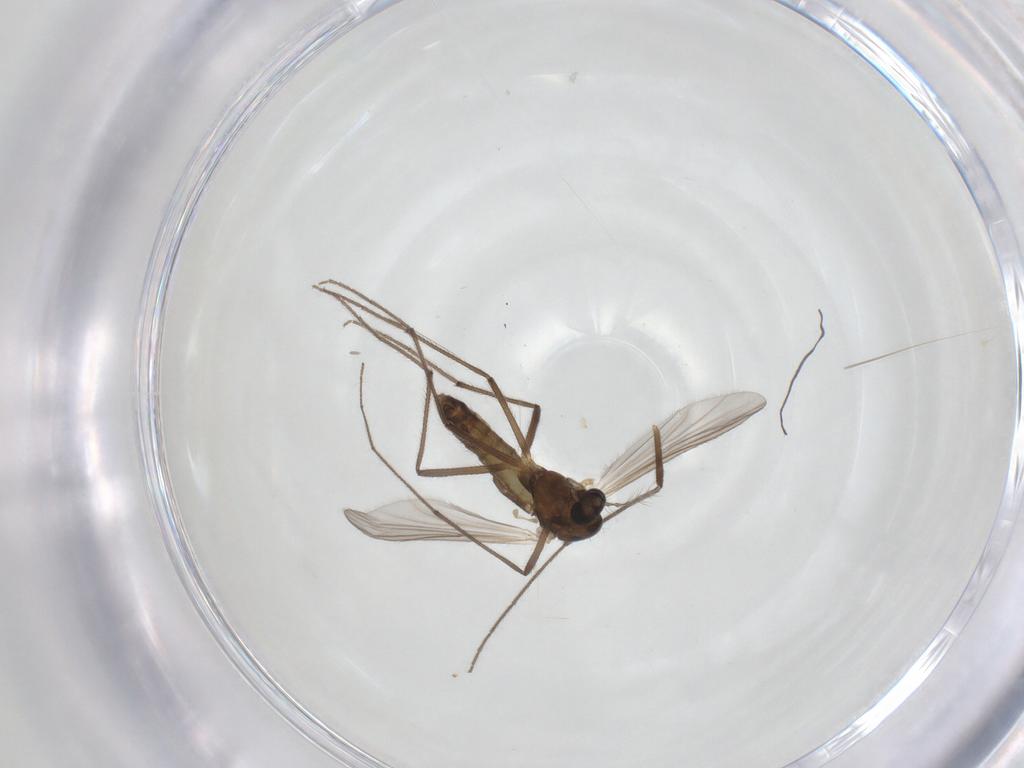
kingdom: Animalia
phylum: Arthropoda
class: Insecta
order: Diptera
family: Chironomidae
